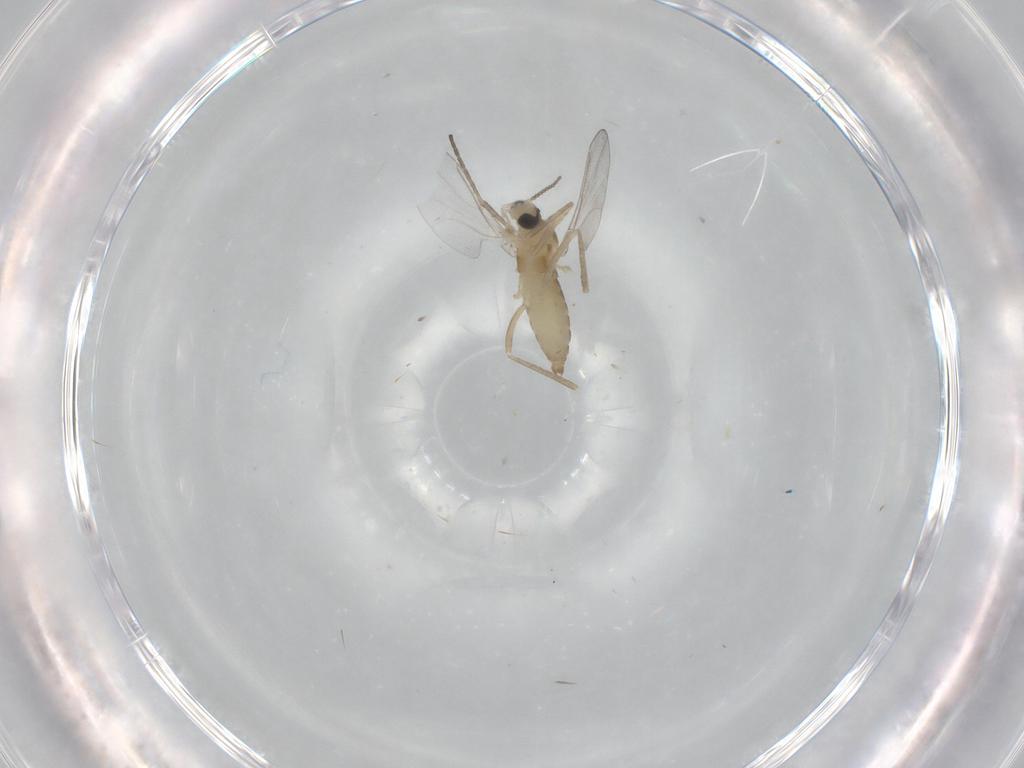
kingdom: Animalia
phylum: Arthropoda
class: Insecta
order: Diptera
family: Cecidomyiidae
